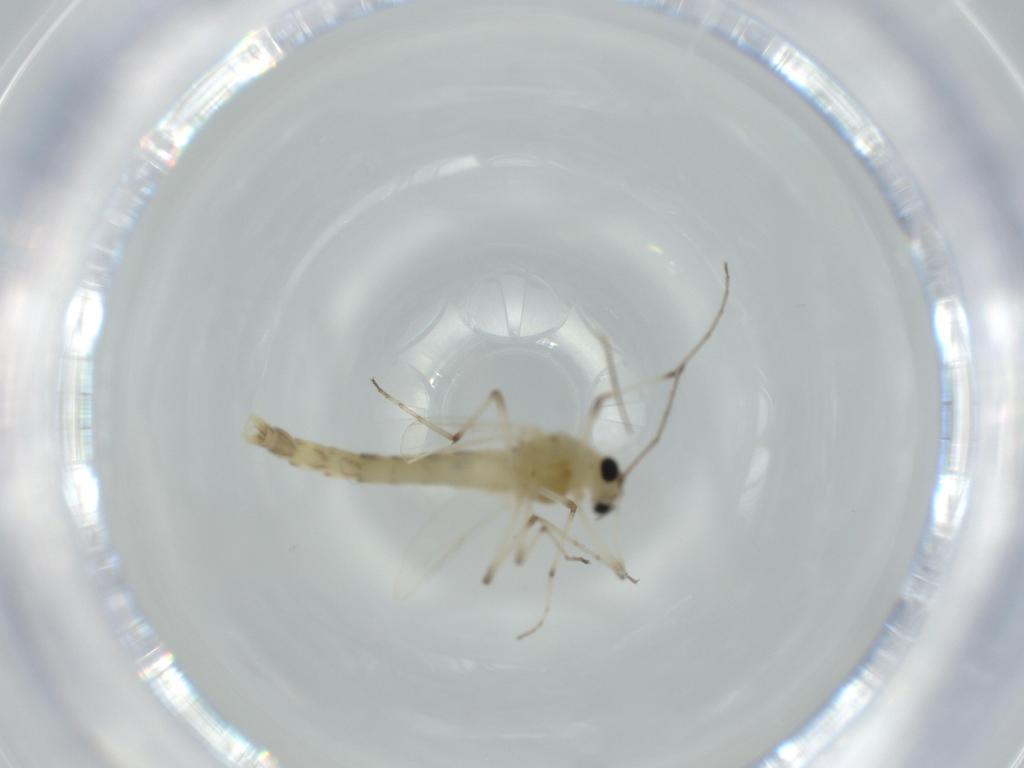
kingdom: Animalia
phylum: Arthropoda
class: Insecta
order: Diptera
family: Chironomidae
